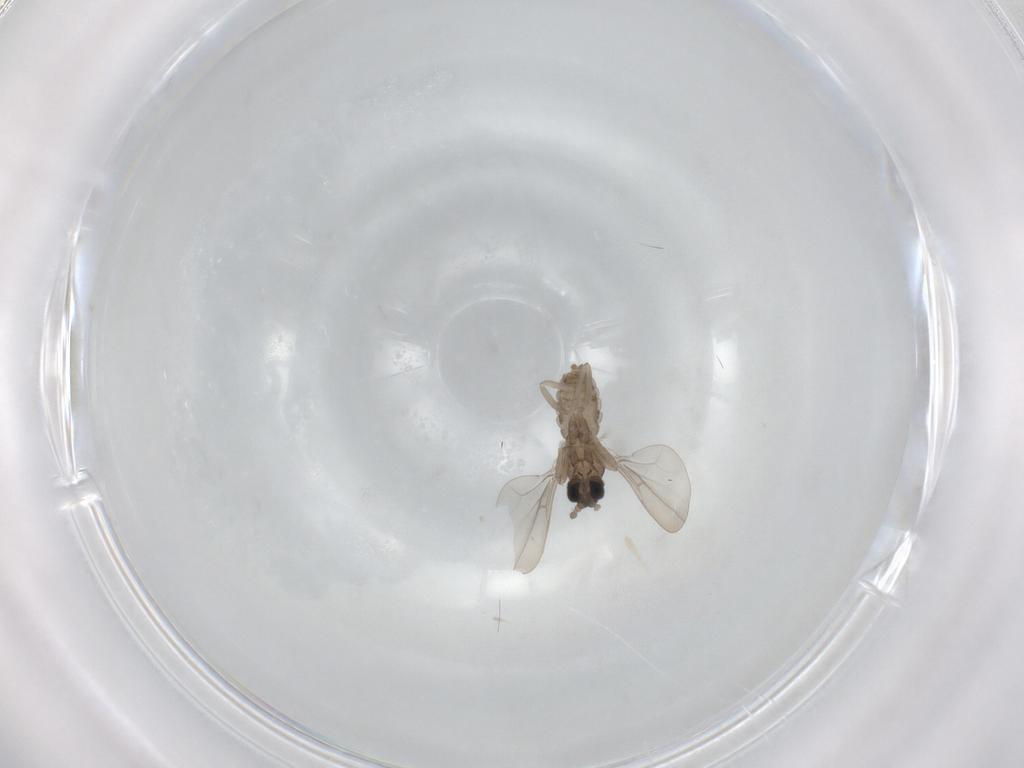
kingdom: Animalia
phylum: Arthropoda
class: Insecta
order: Diptera
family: Cecidomyiidae
